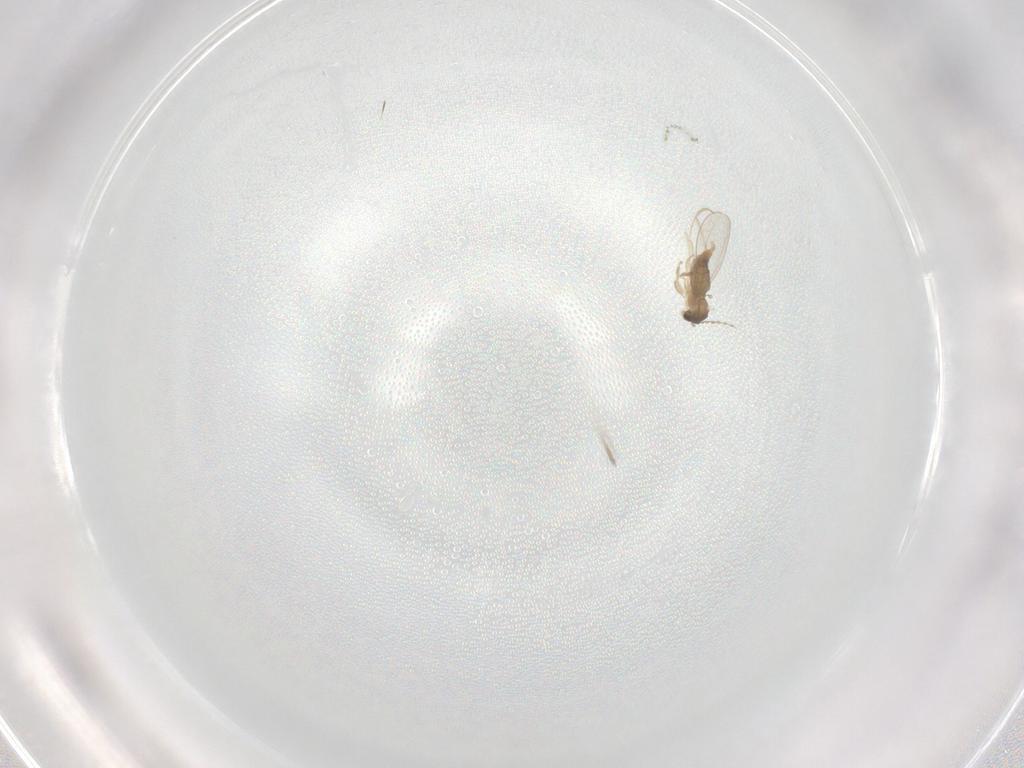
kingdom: Animalia
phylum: Arthropoda
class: Insecta
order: Diptera
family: Cecidomyiidae
